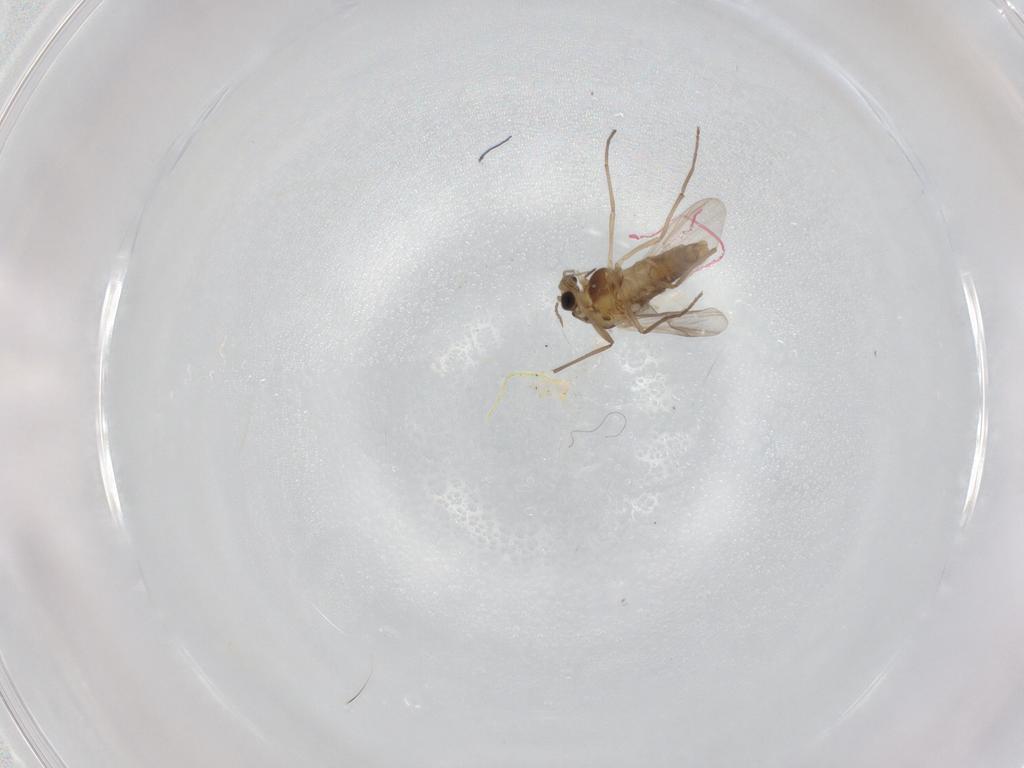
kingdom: Animalia
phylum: Arthropoda
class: Insecta
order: Diptera
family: Chironomidae
